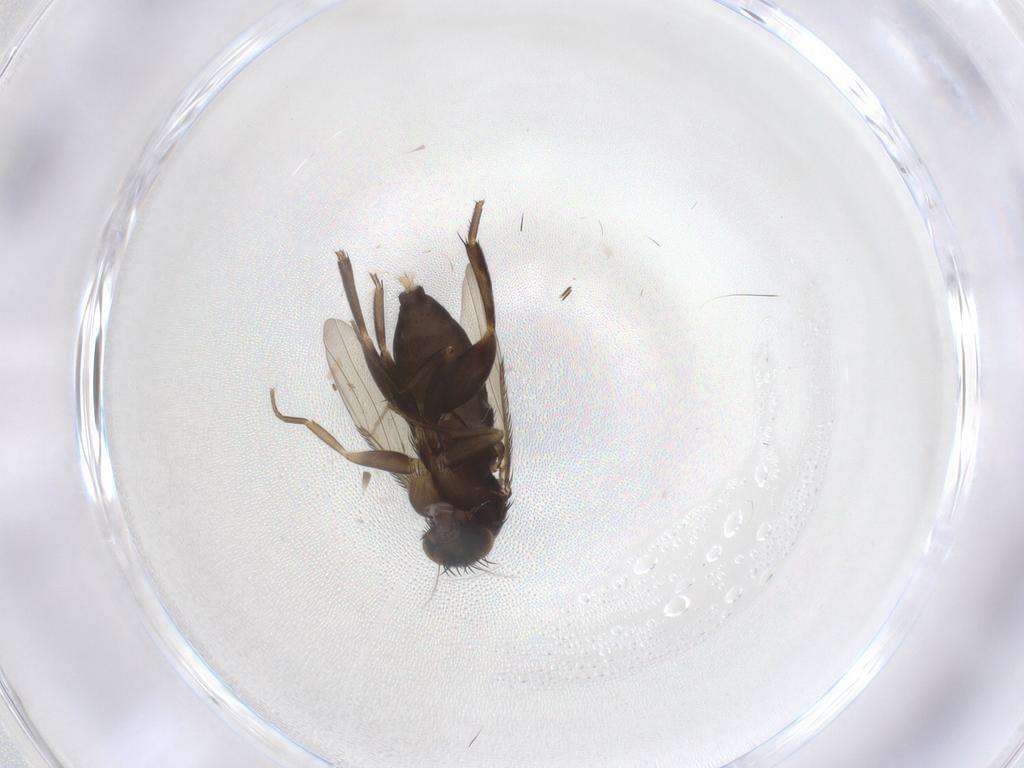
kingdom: Animalia
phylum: Arthropoda
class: Insecta
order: Diptera
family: Phoridae
